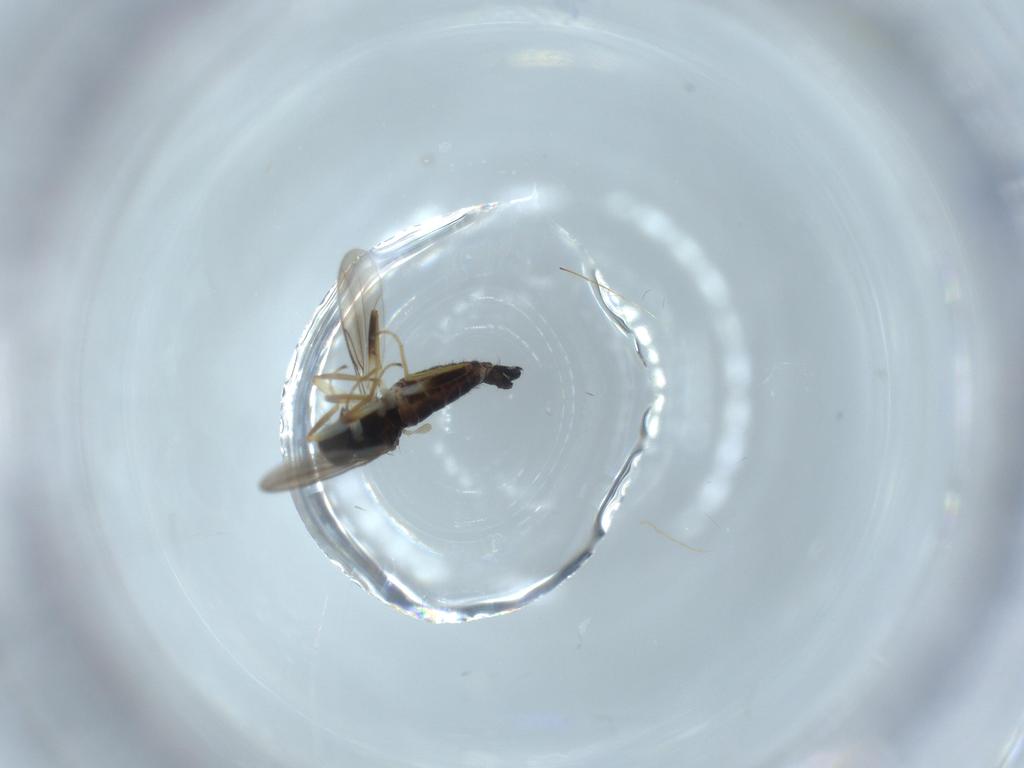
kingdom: Animalia
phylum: Arthropoda
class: Insecta
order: Diptera
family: Hybotidae
